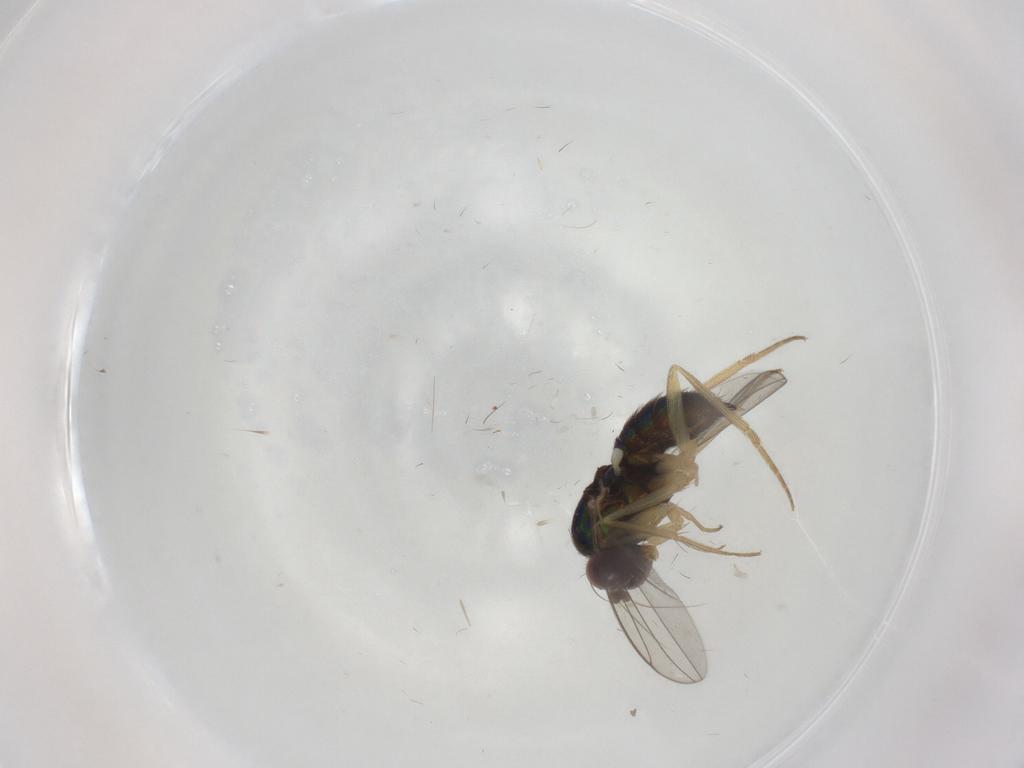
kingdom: Animalia
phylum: Arthropoda
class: Insecta
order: Diptera
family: Dolichopodidae
